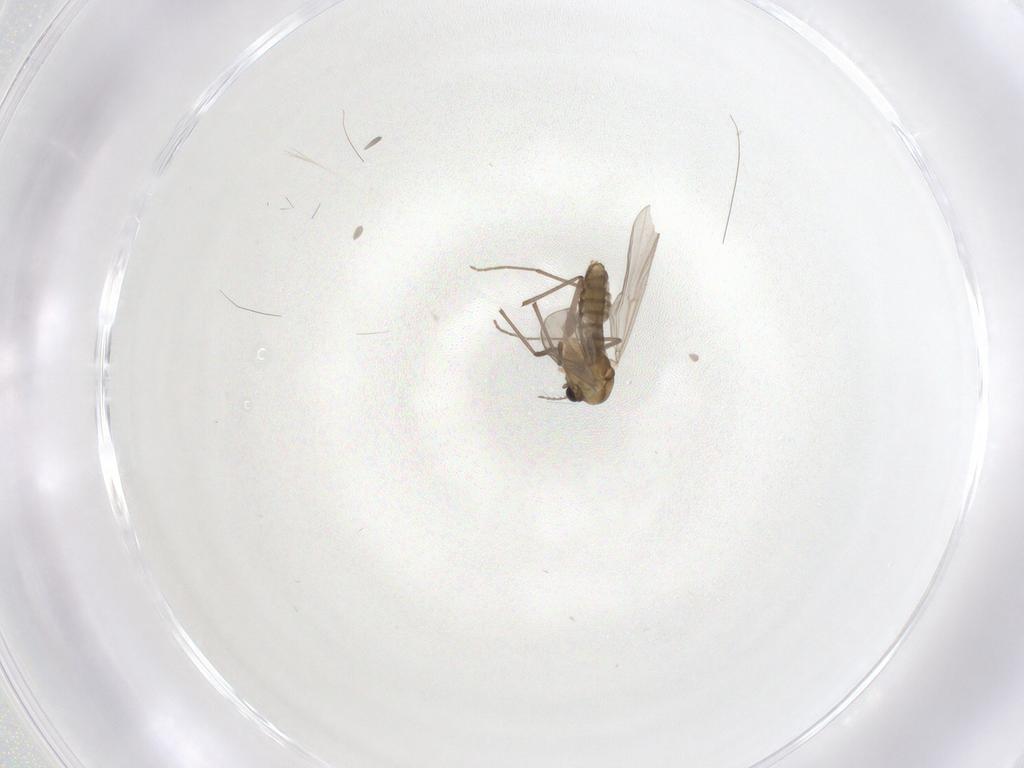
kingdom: Animalia
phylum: Arthropoda
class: Insecta
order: Diptera
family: Chironomidae
